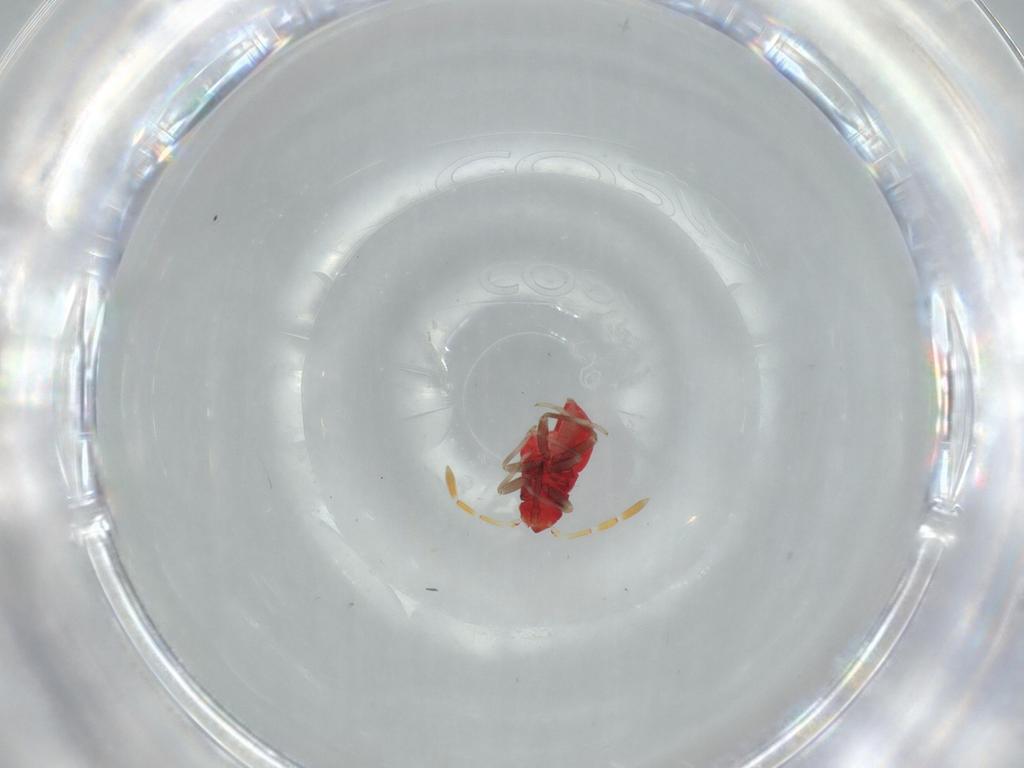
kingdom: Animalia
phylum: Arthropoda
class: Insecta
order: Hemiptera
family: Miridae
